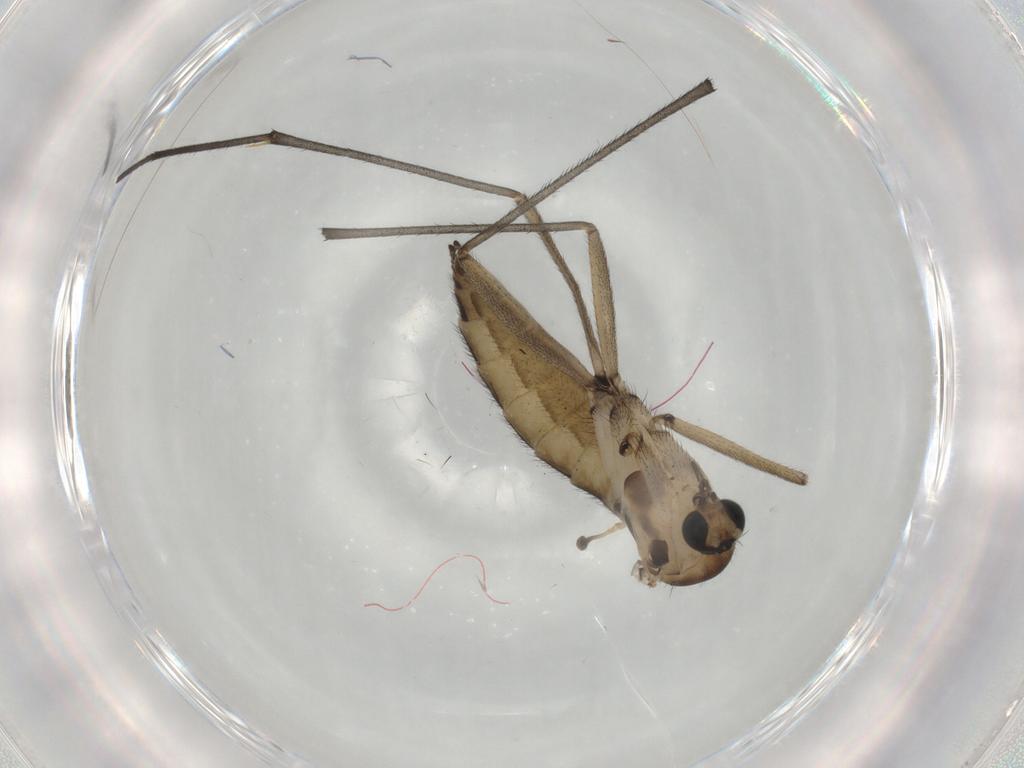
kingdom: Animalia
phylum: Arthropoda
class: Insecta
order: Diptera
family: Sciaridae
